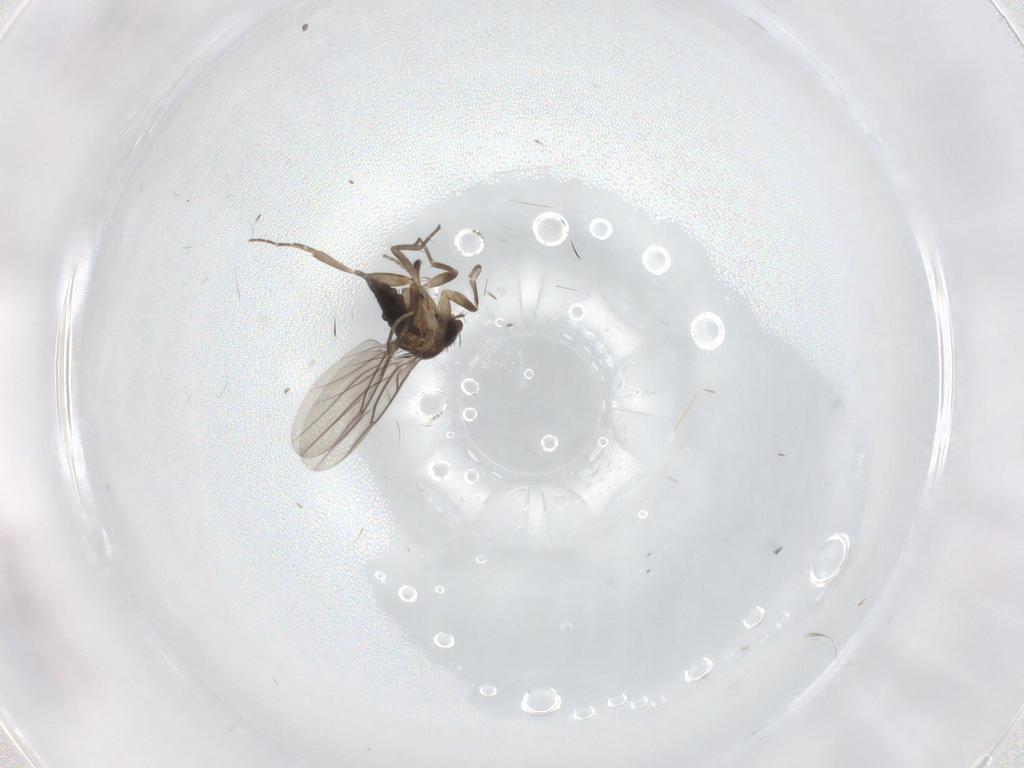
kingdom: Animalia
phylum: Arthropoda
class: Insecta
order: Diptera
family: Phoridae
